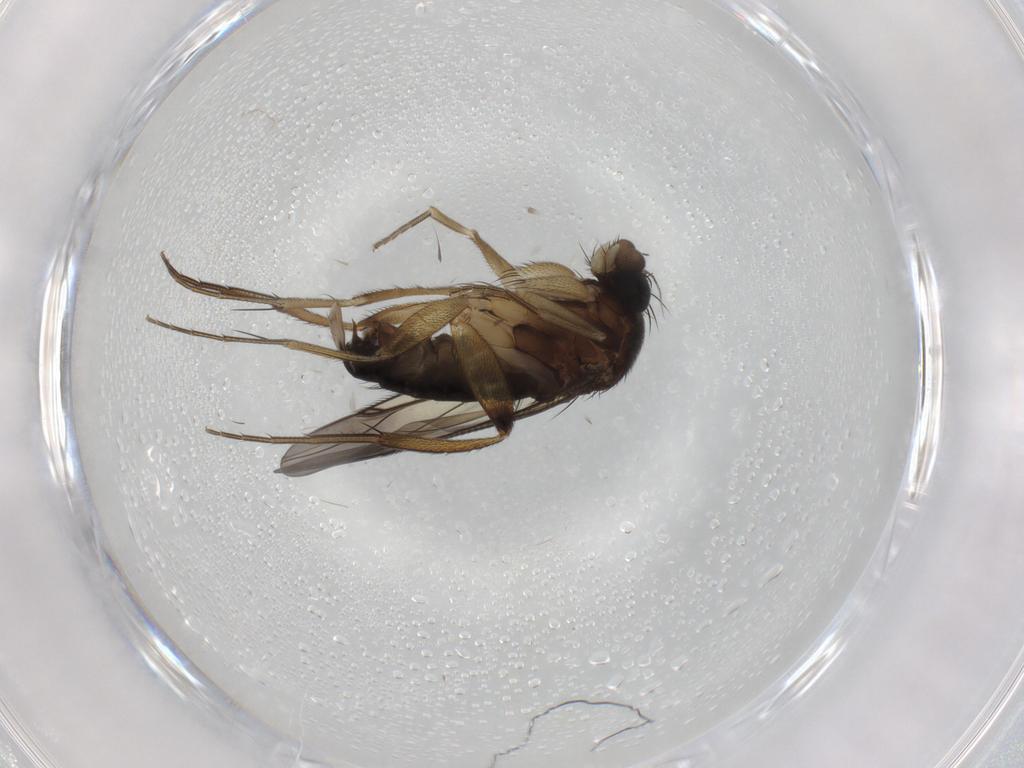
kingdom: Animalia
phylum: Arthropoda
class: Insecta
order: Diptera
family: Phoridae
